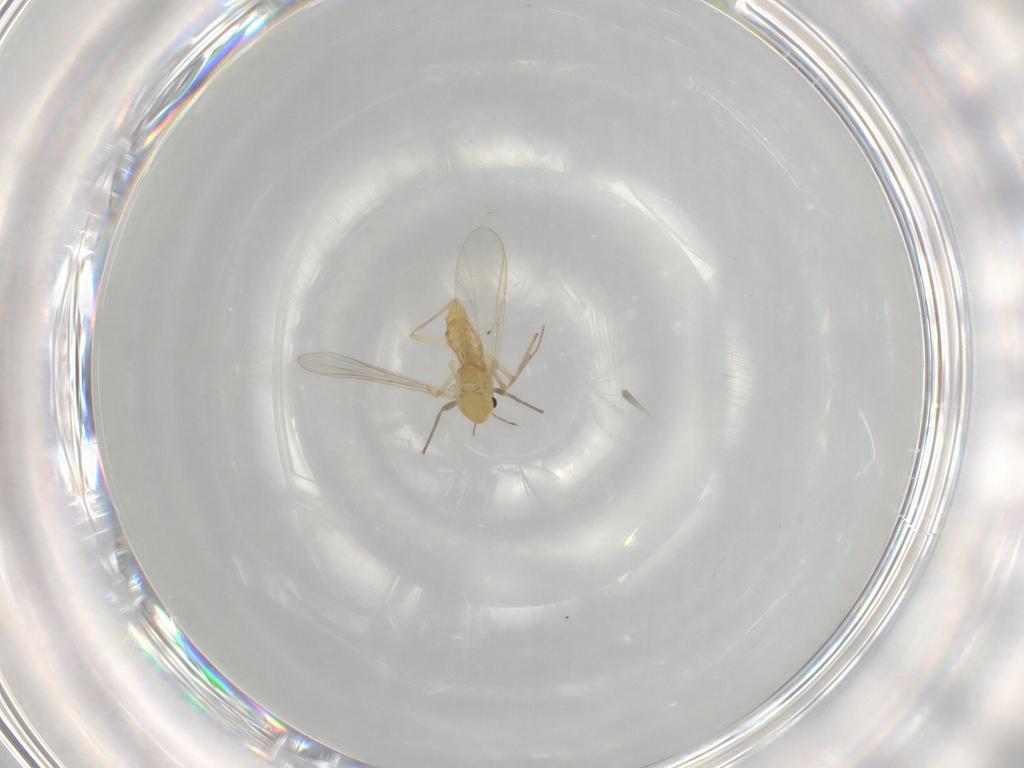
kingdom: Animalia
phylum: Arthropoda
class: Insecta
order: Diptera
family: Chironomidae
